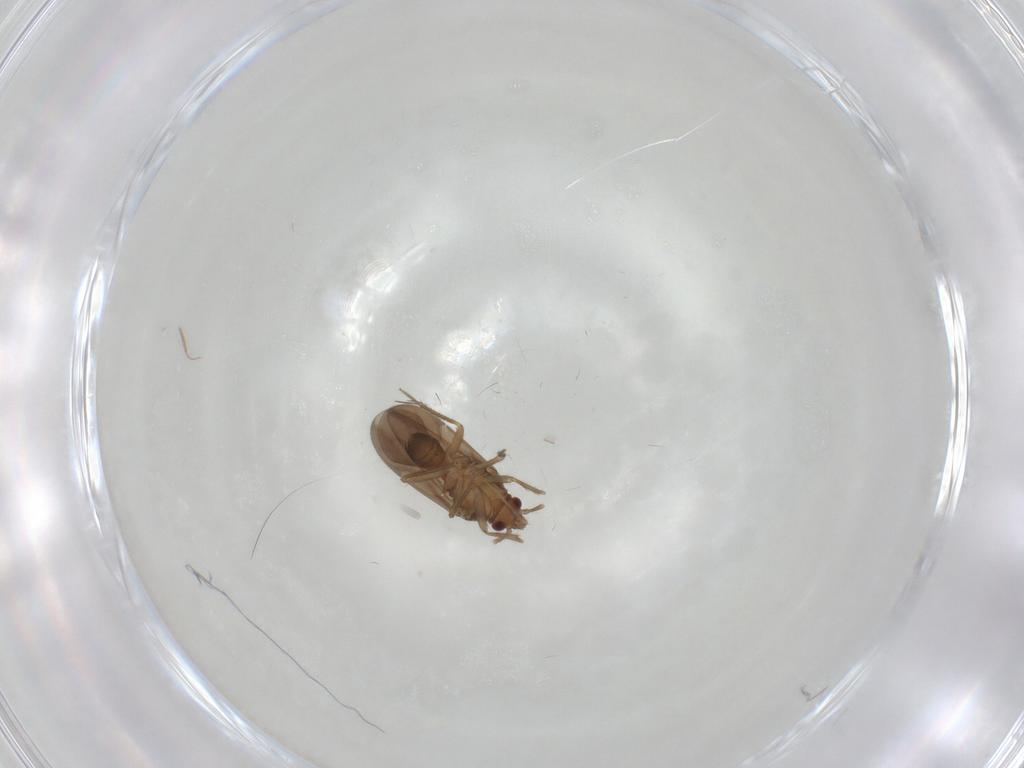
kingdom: Animalia
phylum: Arthropoda
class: Insecta
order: Hemiptera
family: Ceratocombidae
